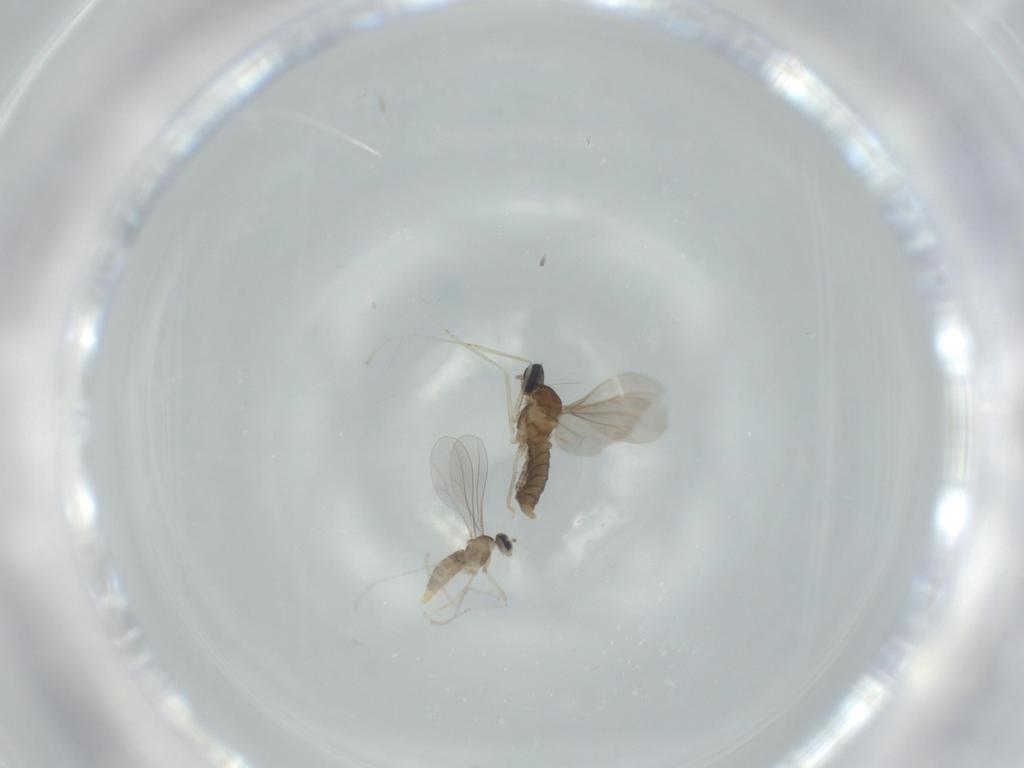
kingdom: Animalia
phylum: Arthropoda
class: Insecta
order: Diptera
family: Cecidomyiidae
